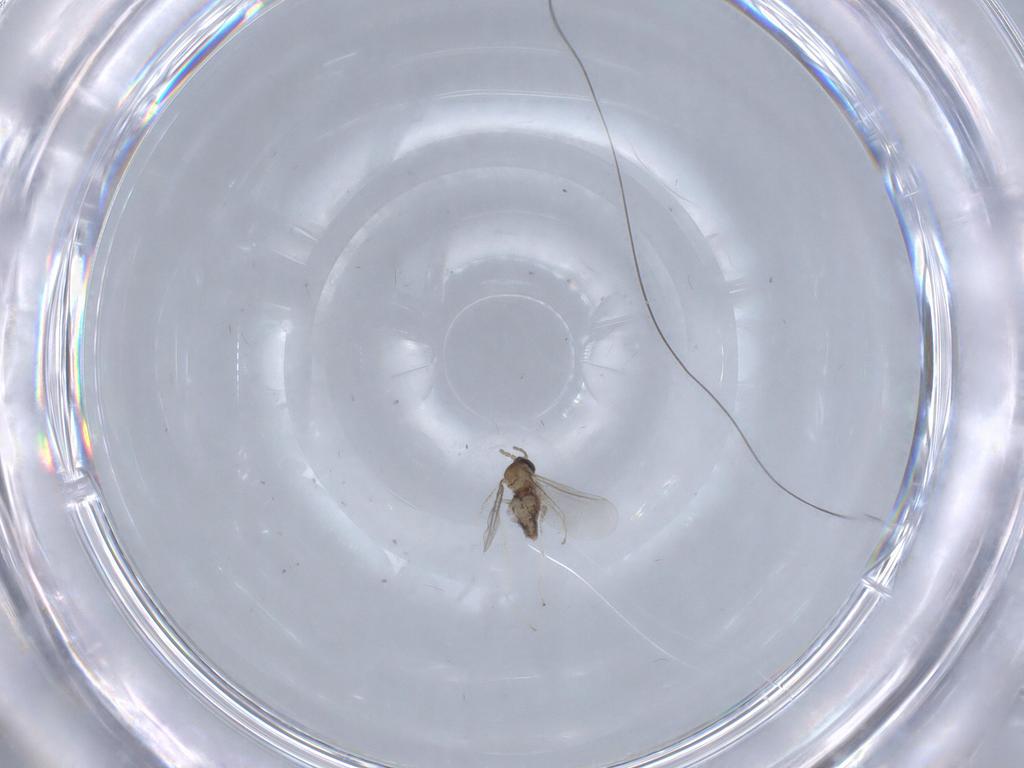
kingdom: Animalia
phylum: Arthropoda
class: Insecta
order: Diptera
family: Cecidomyiidae
